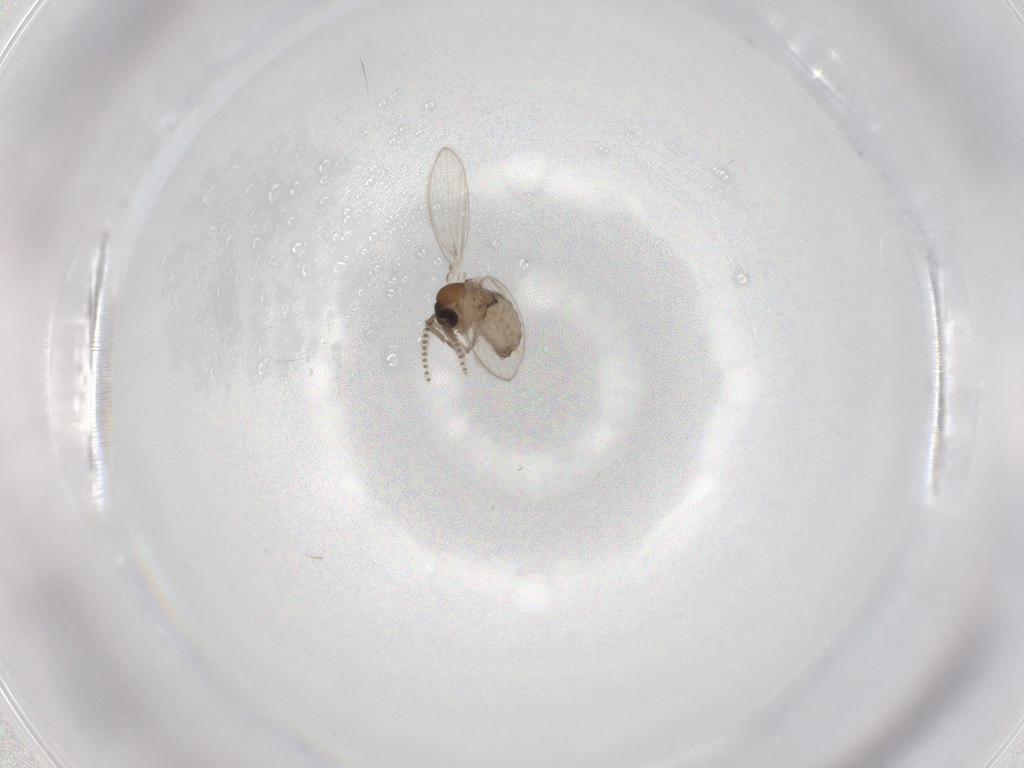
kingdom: Animalia
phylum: Arthropoda
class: Insecta
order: Diptera
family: Psychodidae
